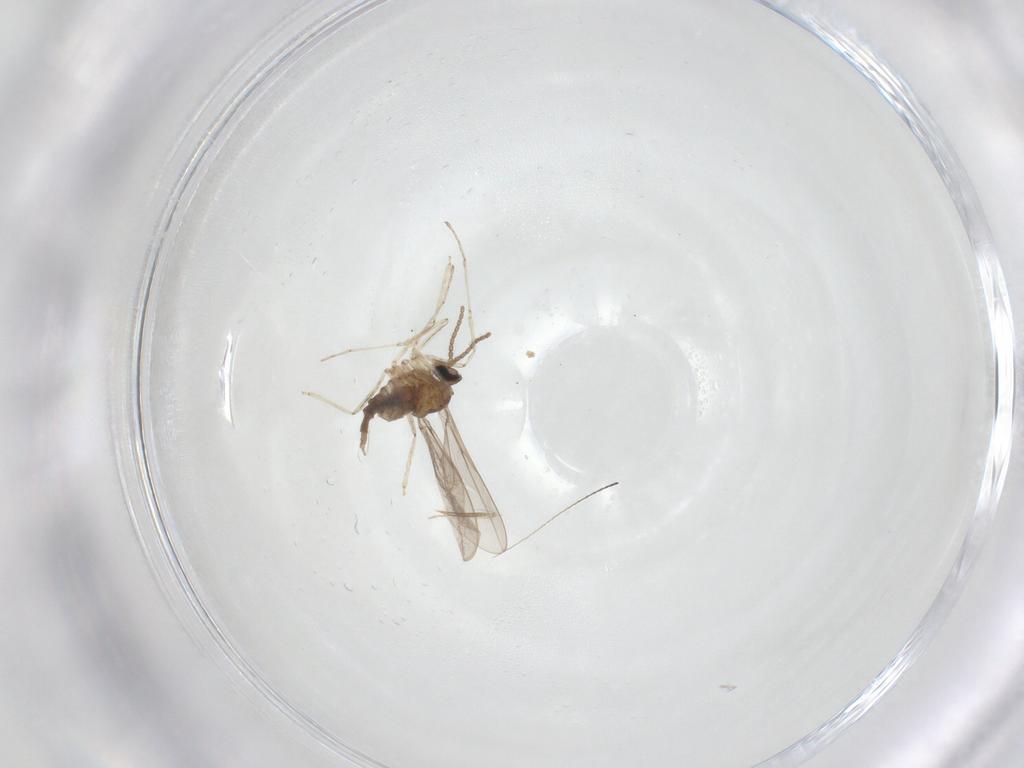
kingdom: Animalia
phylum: Arthropoda
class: Insecta
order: Diptera
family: Cecidomyiidae
